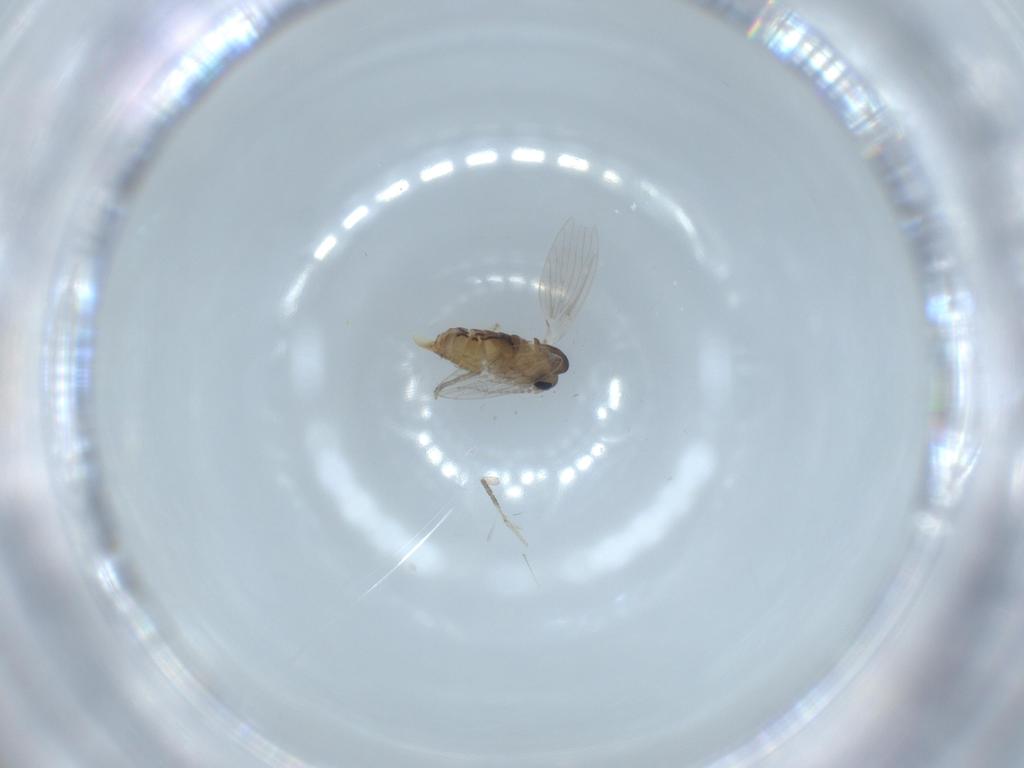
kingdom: Animalia
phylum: Arthropoda
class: Insecta
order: Diptera
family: Psychodidae
